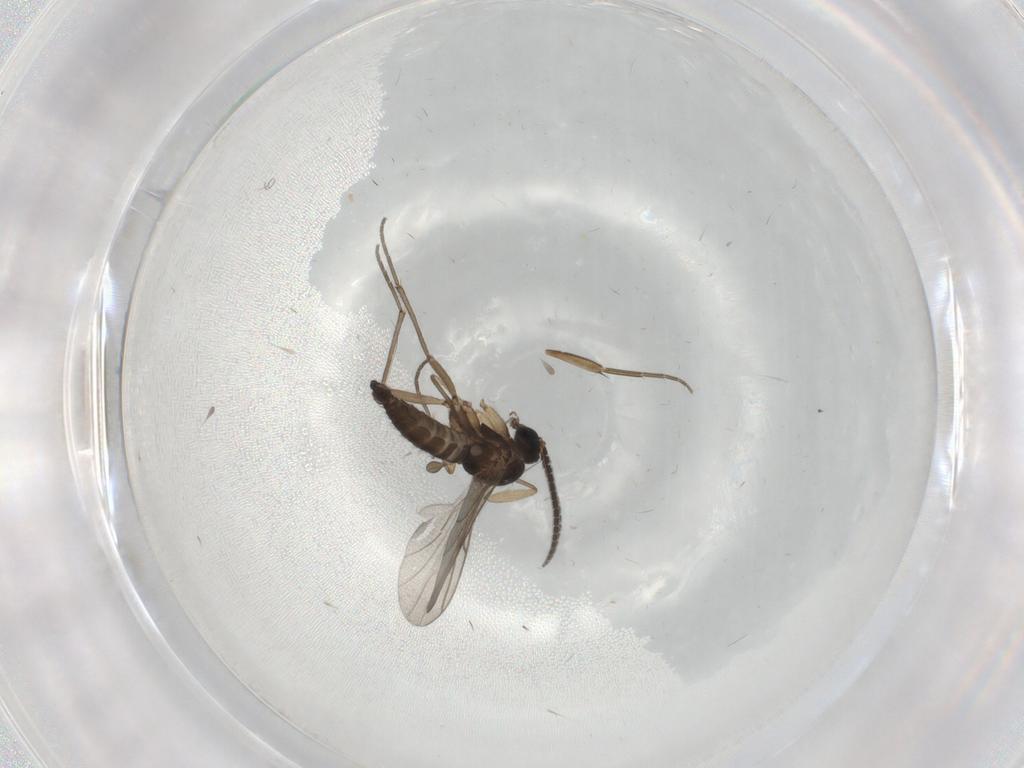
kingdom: Animalia
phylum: Arthropoda
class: Insecta
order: Diptera
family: Sciaridae
